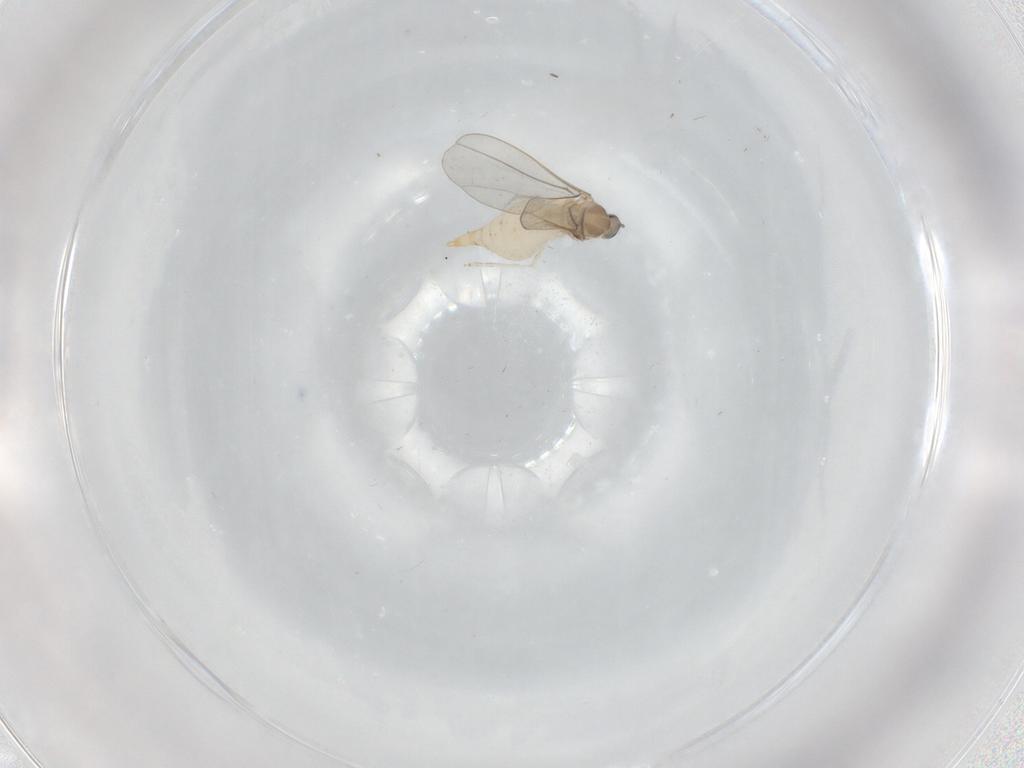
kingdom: Animalia
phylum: Arthropoda
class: Insecta
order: Diptera
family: Cecidomyiidae
